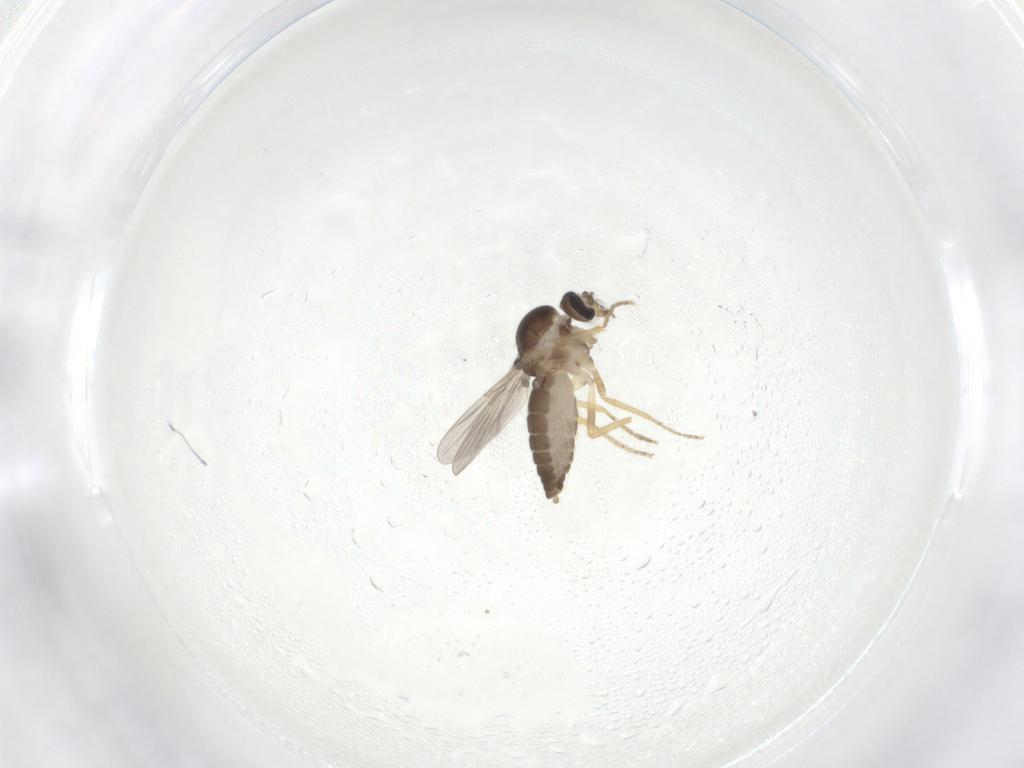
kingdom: Animalia
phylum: Arthropoda
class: Insecta
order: Diptera
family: Ceratopogonidae
